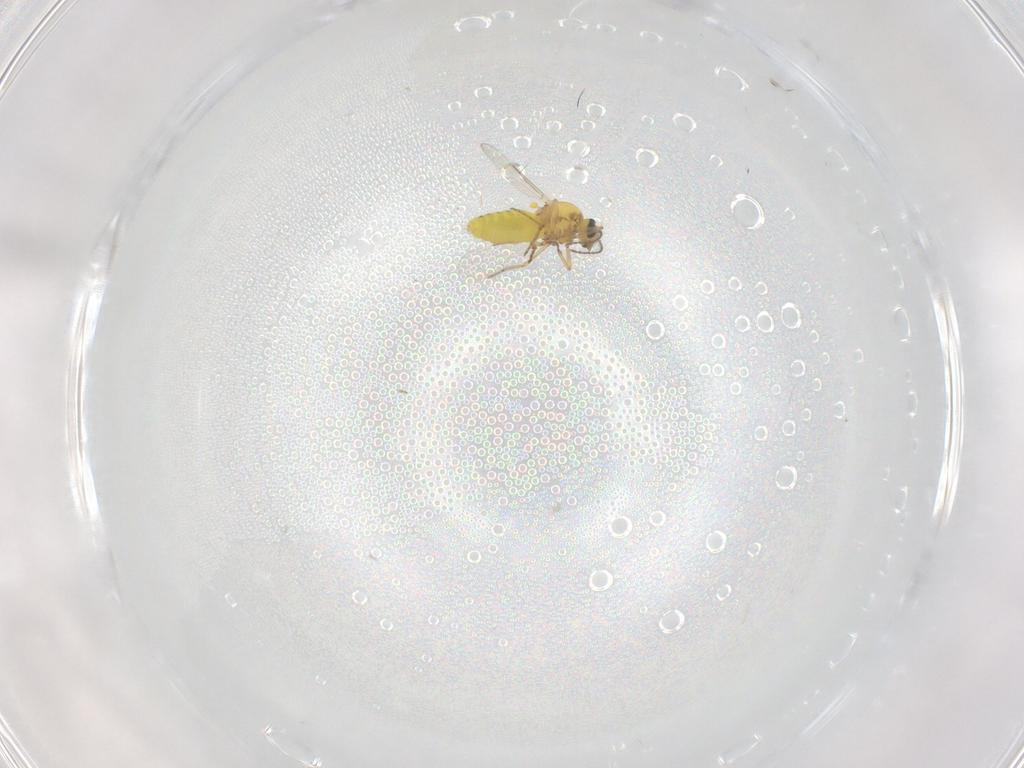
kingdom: Animalia
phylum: Arthropoda
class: Insecta
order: Diptera
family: Ceratopogonidae
